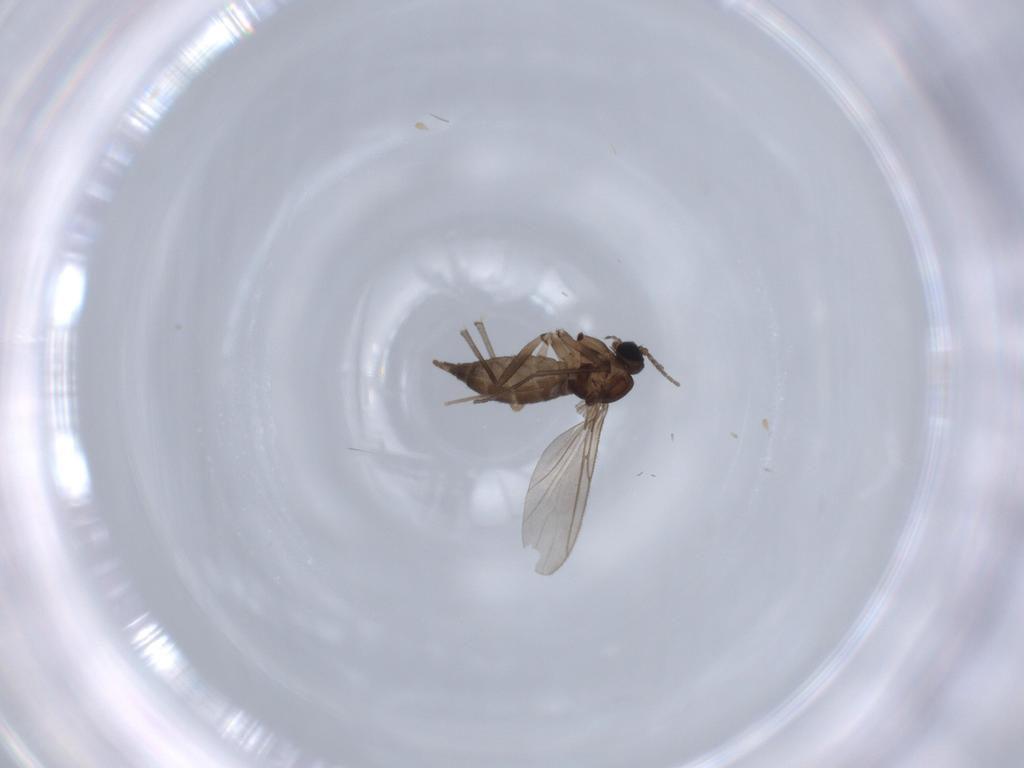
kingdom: Animalia
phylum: Arthropoda
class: Insecta
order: Diptera
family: Sciaridae
